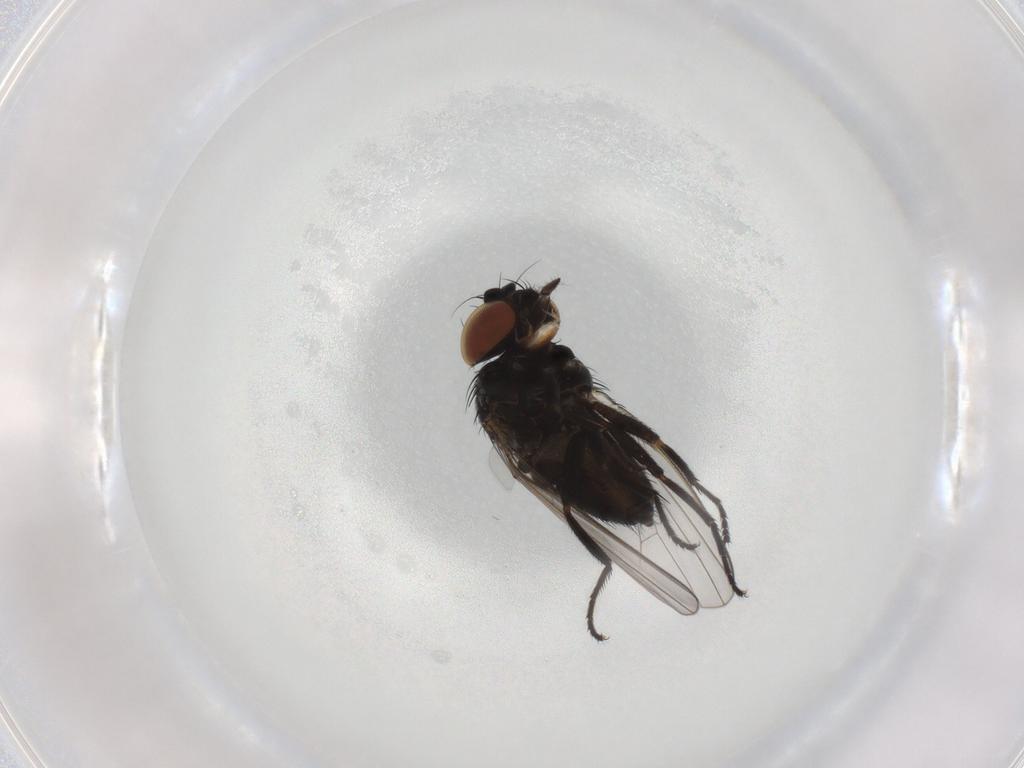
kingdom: Animalia
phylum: Arthropoda
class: Insecta
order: Diptera
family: Milichiidae
